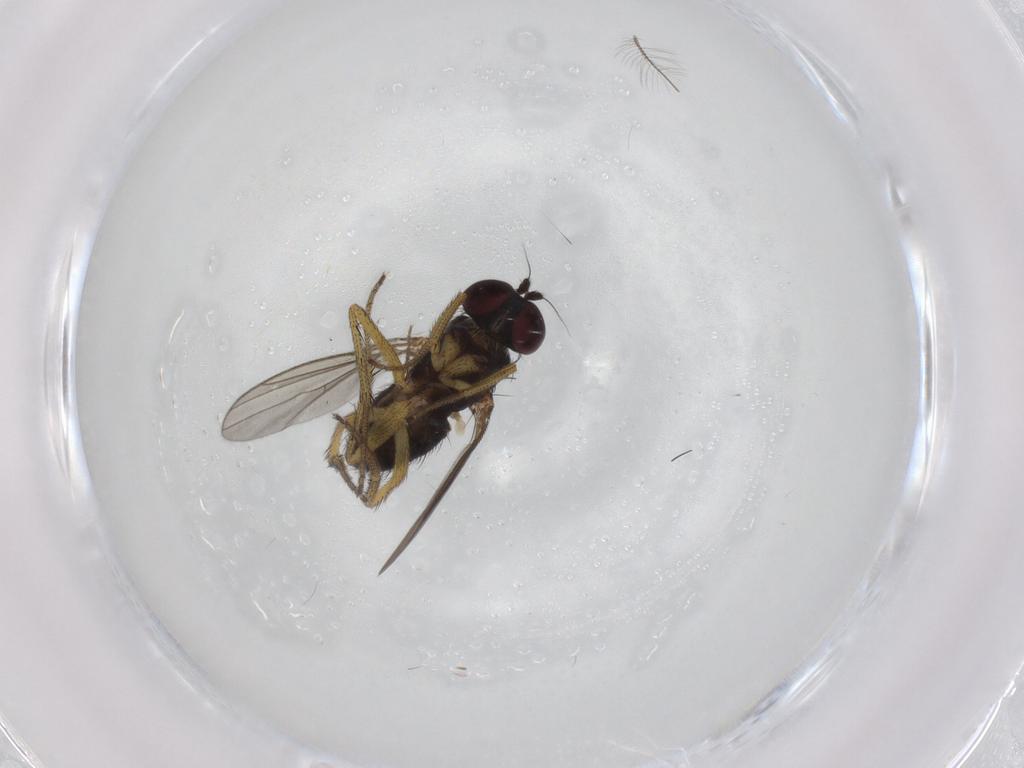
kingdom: Animalia
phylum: Arthropoda
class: Insecta
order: Diptera
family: Dolichopodidae
